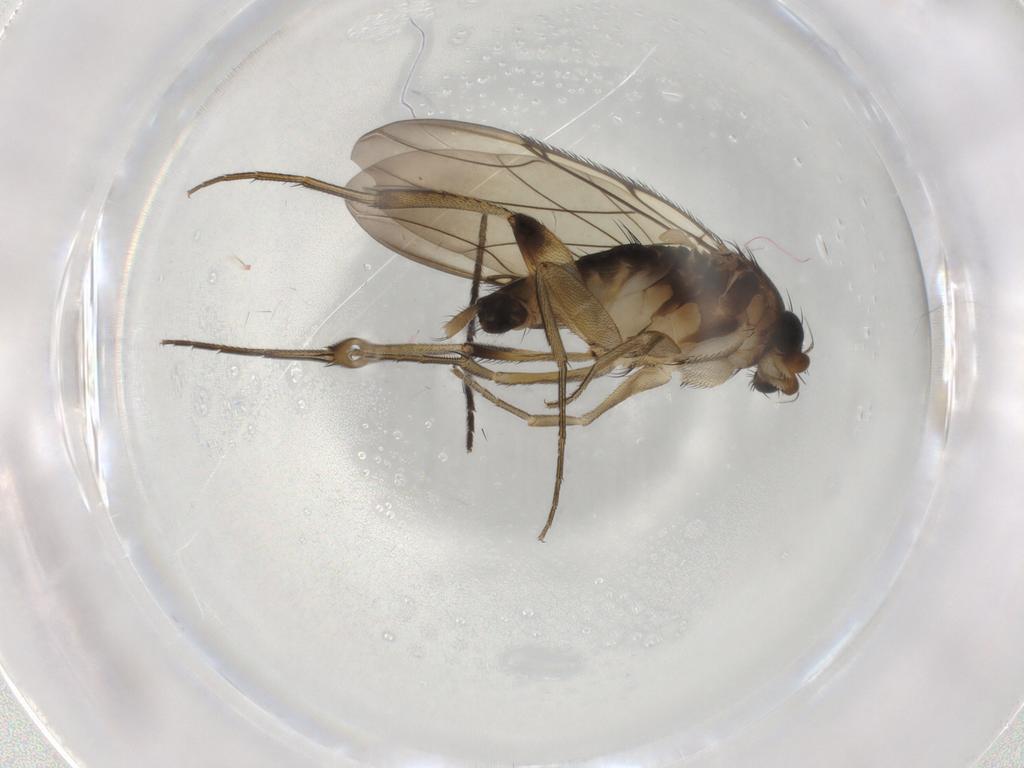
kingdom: Animalia
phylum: Arthropoda
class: Insecta
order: Diptera
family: Phoridae
